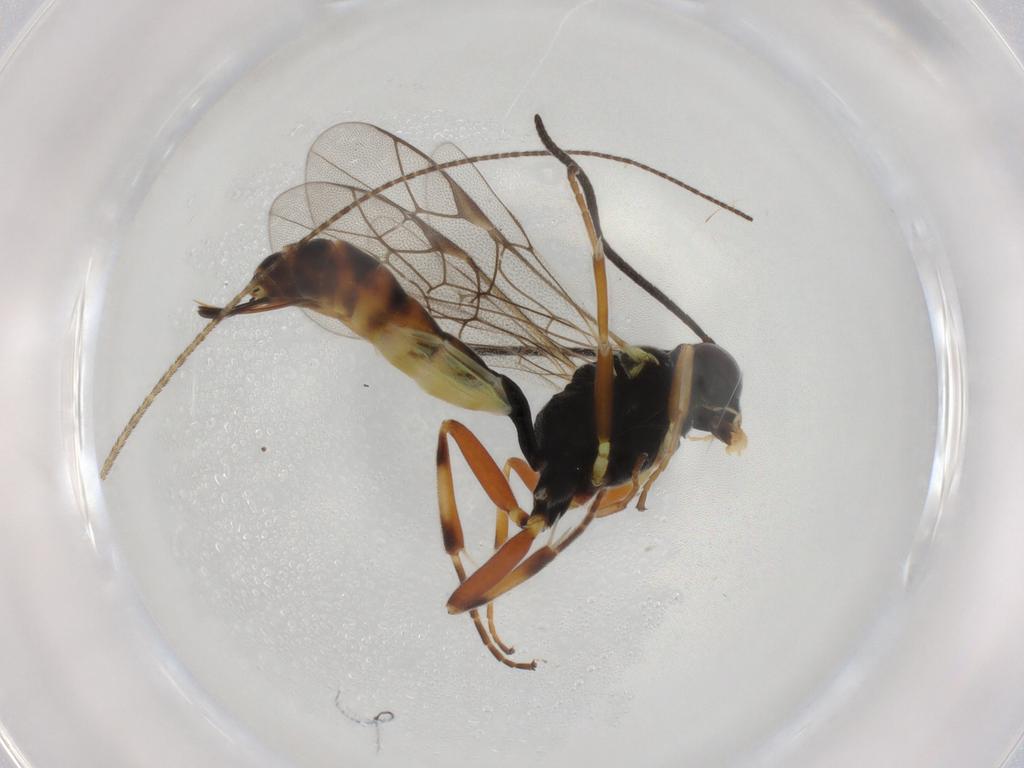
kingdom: Animalia
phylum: Arthropoda
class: Insecta
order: Hymenoptera
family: Ichneumonidae
